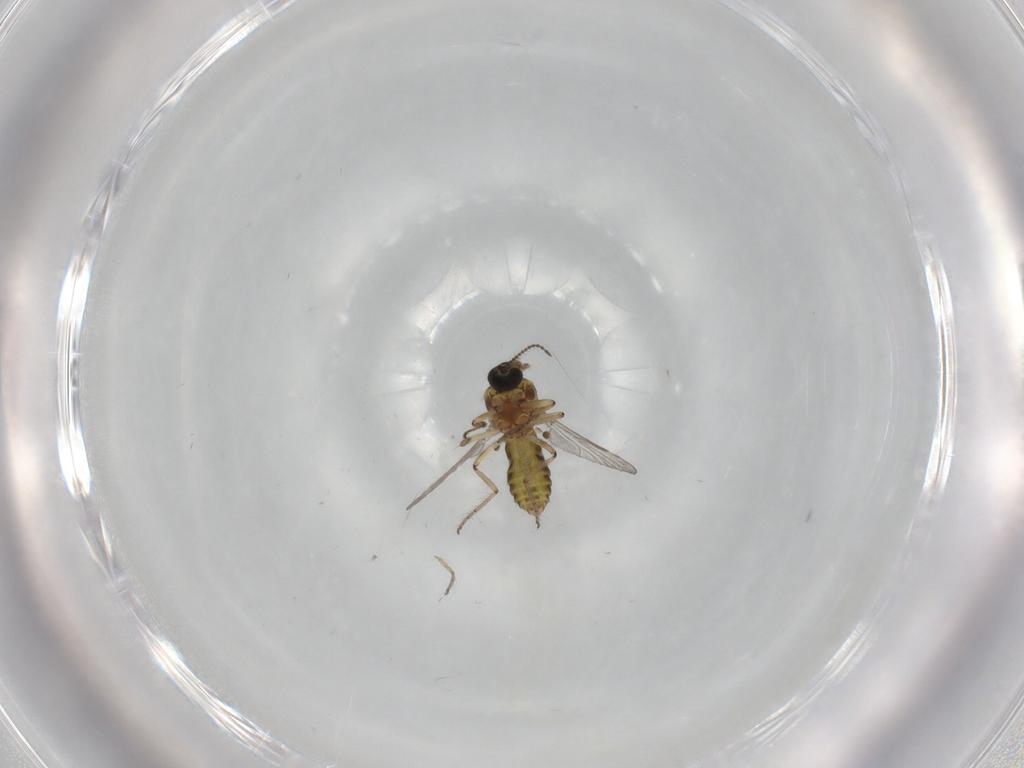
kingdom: Animalia
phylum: Arthropoda
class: Insecta
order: Diptera
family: Ceratopogonidae
